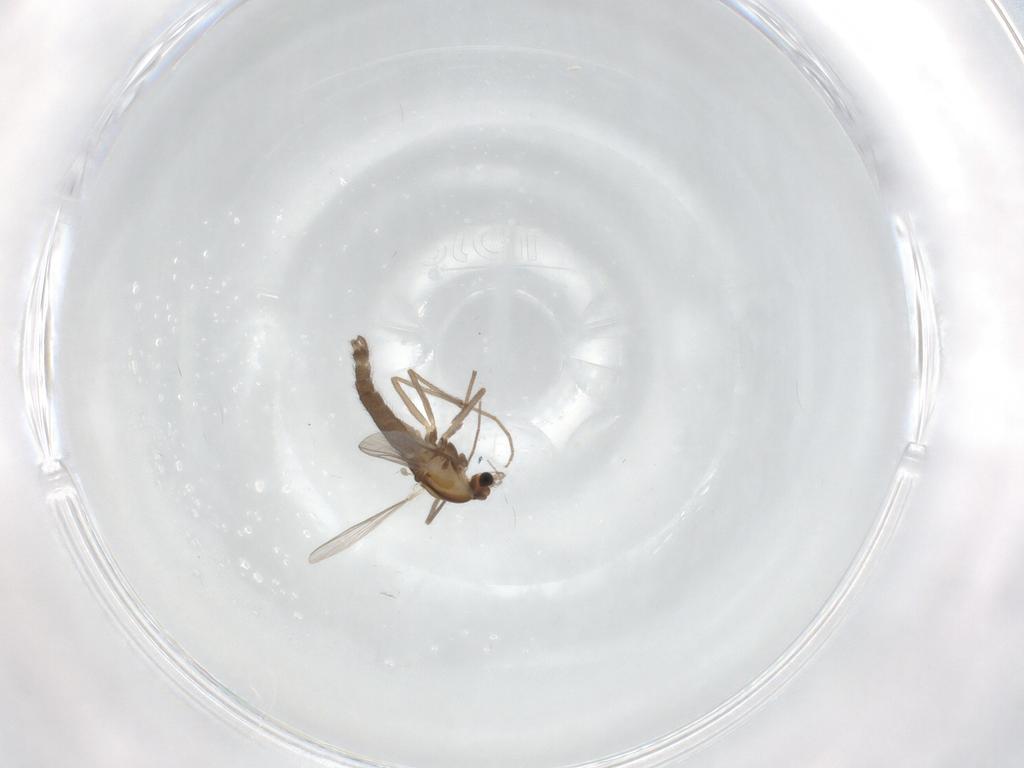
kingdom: Animalia
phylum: Arthropoda
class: Insecta
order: Diptera
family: Chironomidae
